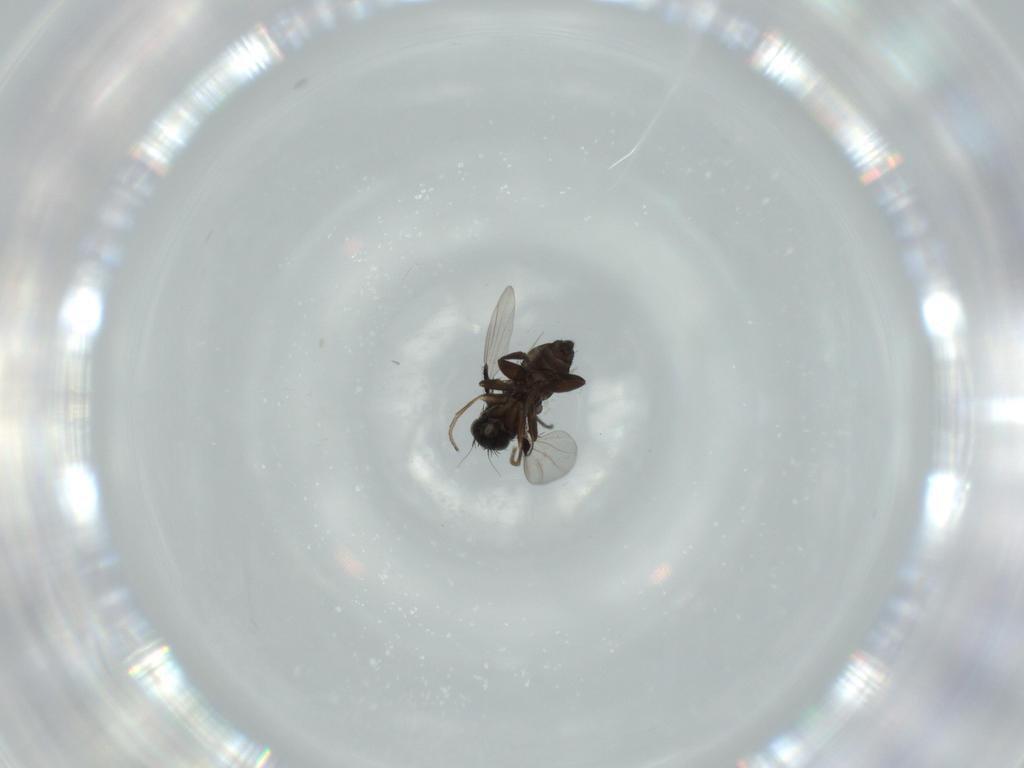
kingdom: Animalia
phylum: Arthropoda
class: Insecta
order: Diptera
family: Phoridae
